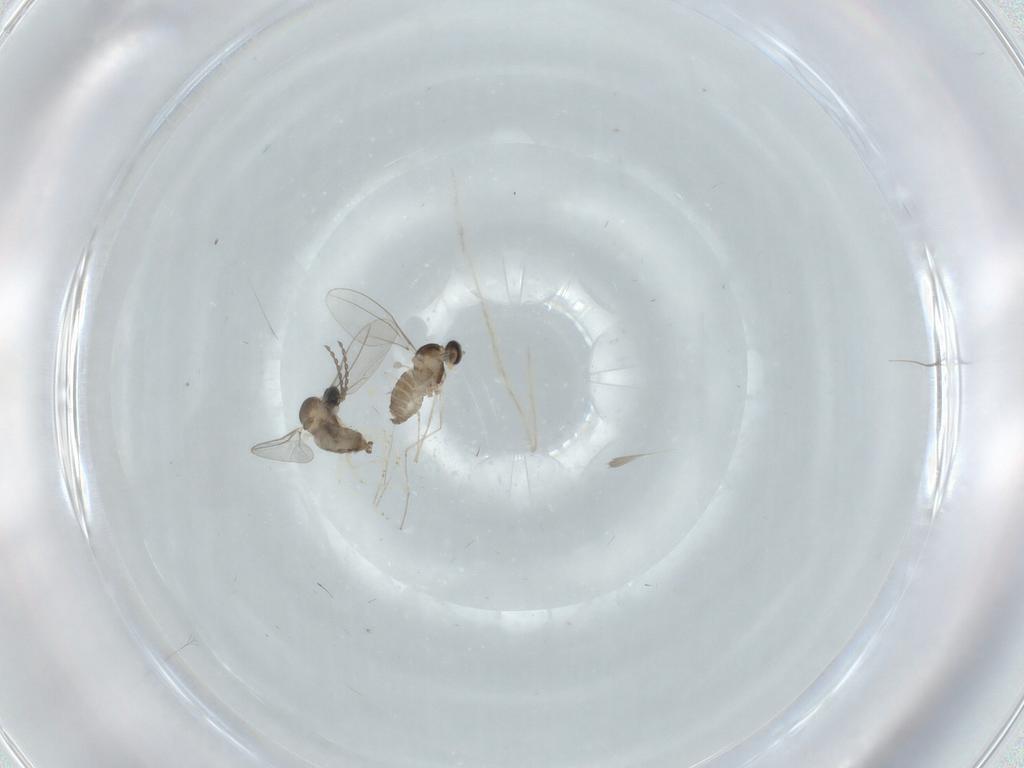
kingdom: Animalia
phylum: Arthropoda
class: Insecta
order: Diptera
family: Cecidomyiidae
